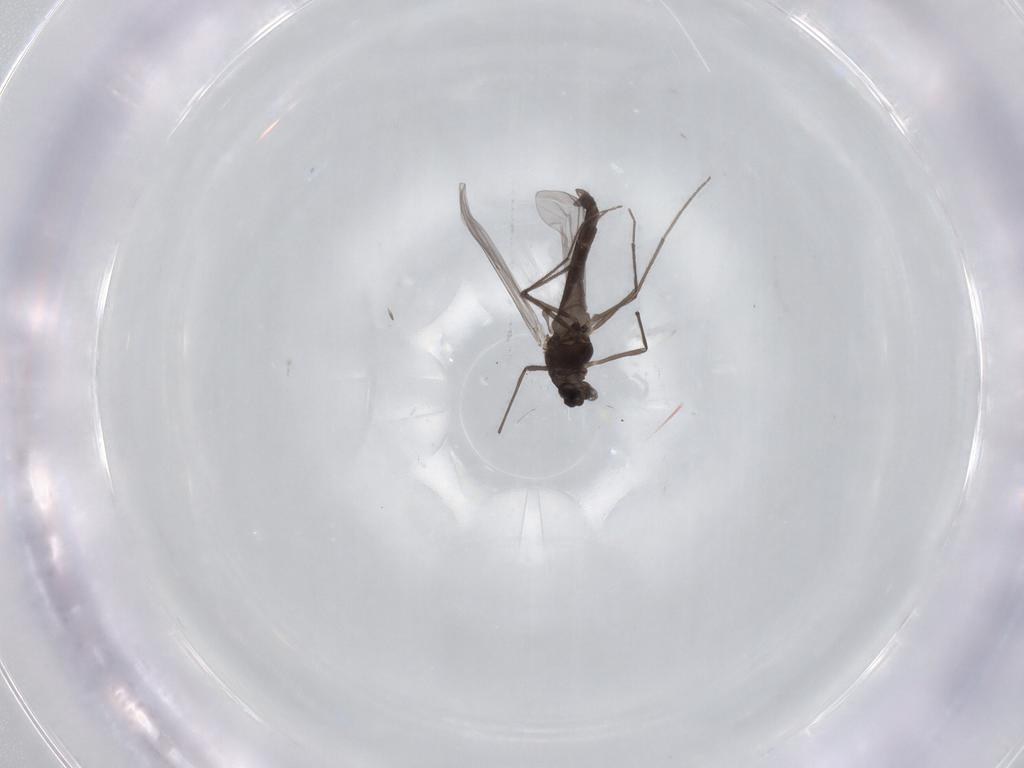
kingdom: Animalia
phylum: Arthropoda
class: Insecta
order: Diptera
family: Chironomidae
